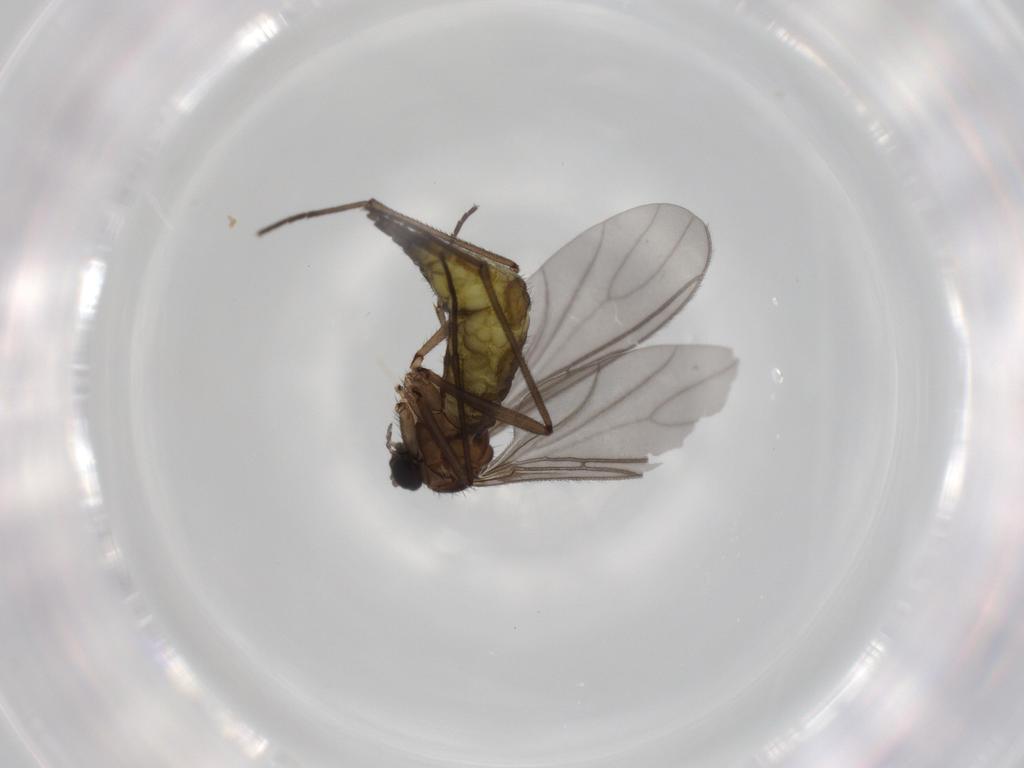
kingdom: Animalia
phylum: Arthropoda
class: Insecta
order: Diptera
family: Sciaridae
